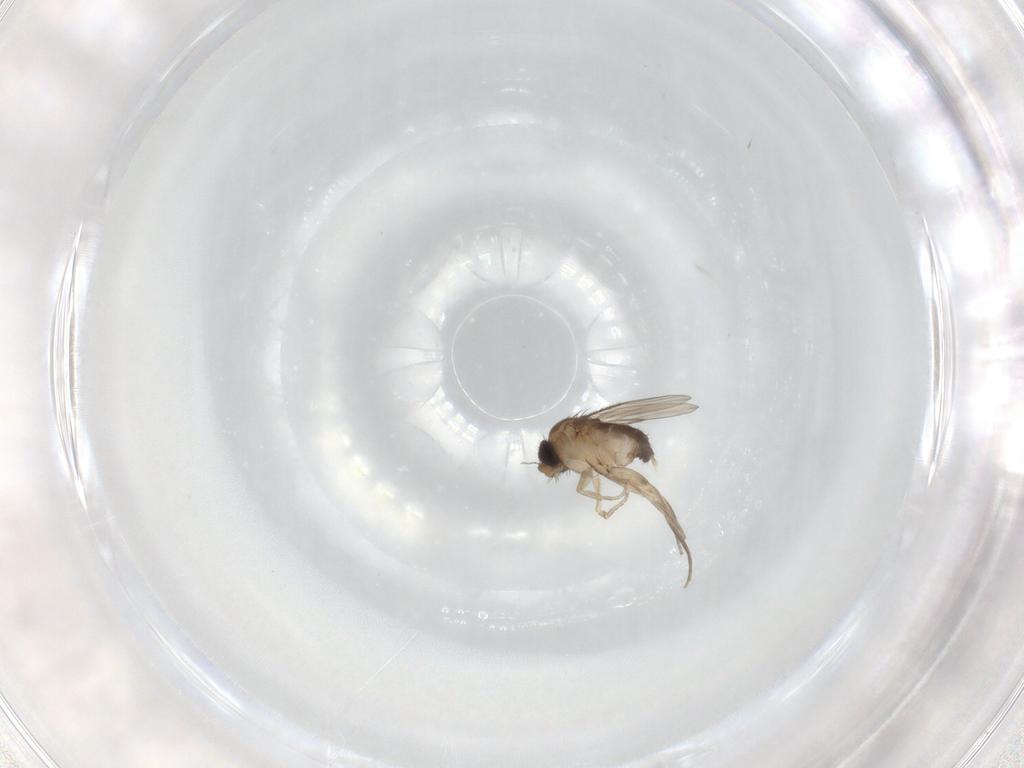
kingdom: Animalia
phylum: Arthropoda
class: Insecta
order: Diptera
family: Phoridae
